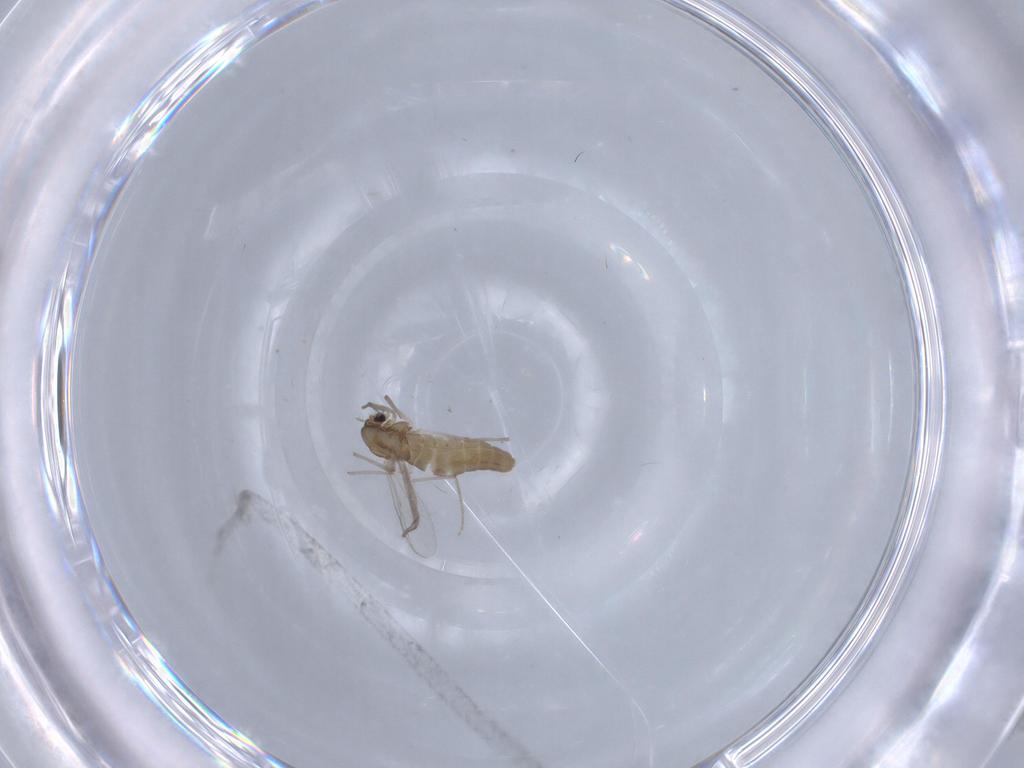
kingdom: Animalia
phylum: Arthropoda
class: Insecta
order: Diptera
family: Chironomidae
